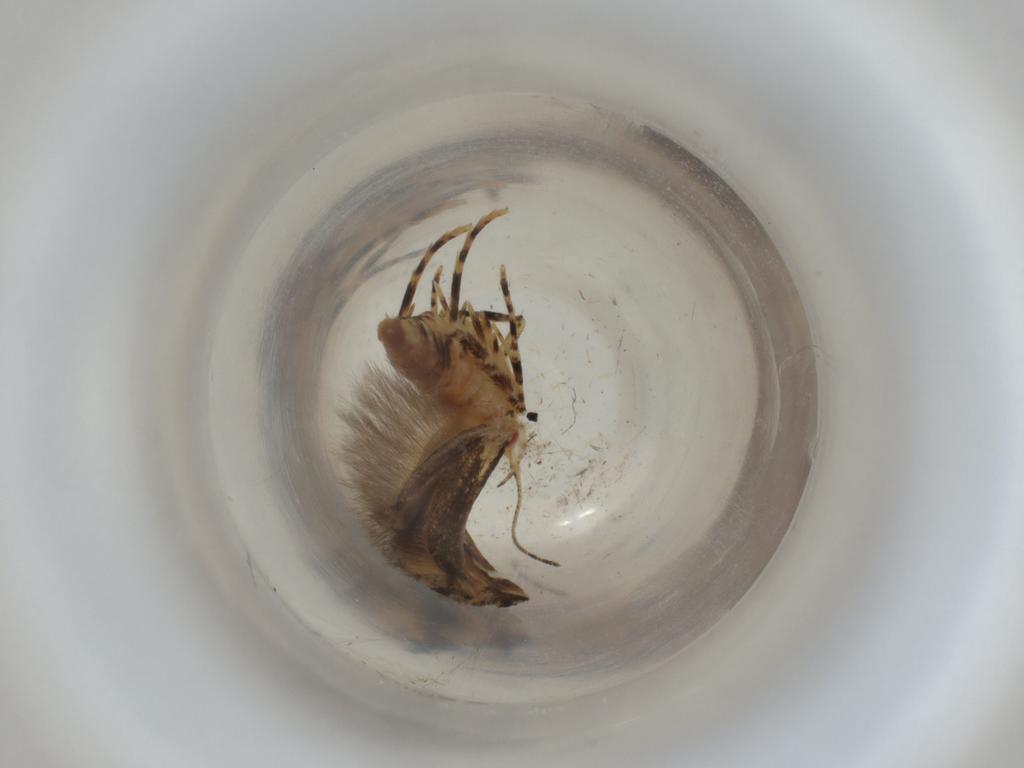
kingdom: Animalia
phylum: Arthropoda
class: Insecta
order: Lepidoptera
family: Cosmopterigidae
